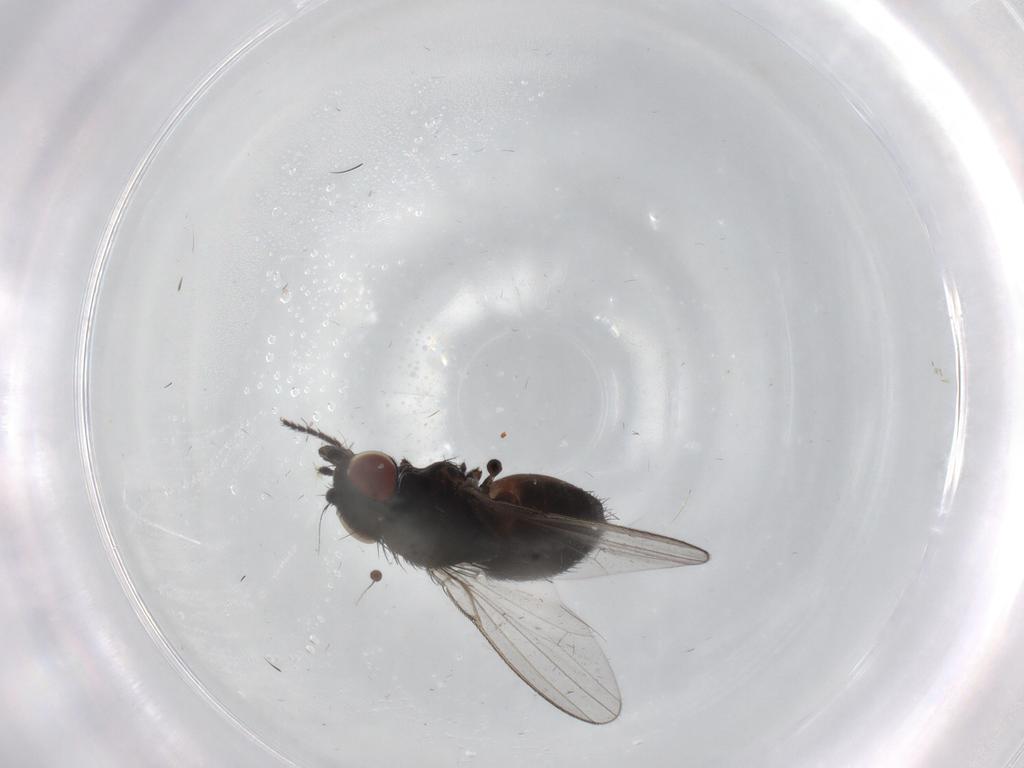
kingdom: Animalia
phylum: Arthropoda
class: Insecta
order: Diptera
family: Milichiidae
